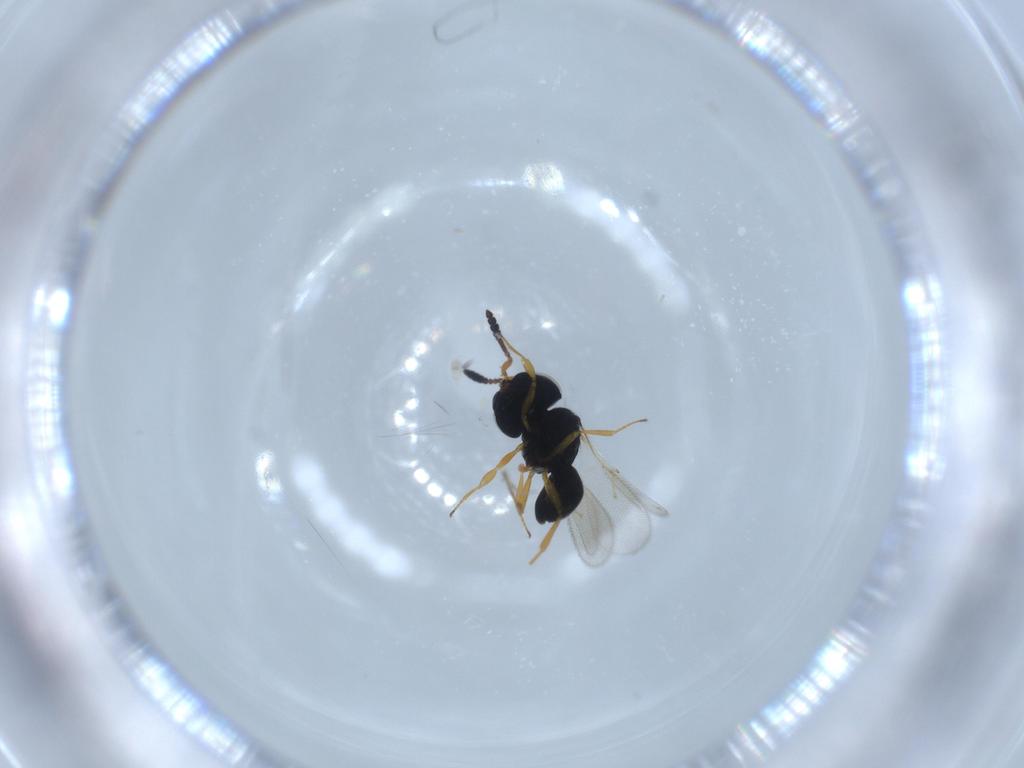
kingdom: Animalia
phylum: Arthropoda
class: Insecta
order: Hymenoptera
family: Scelionidae
